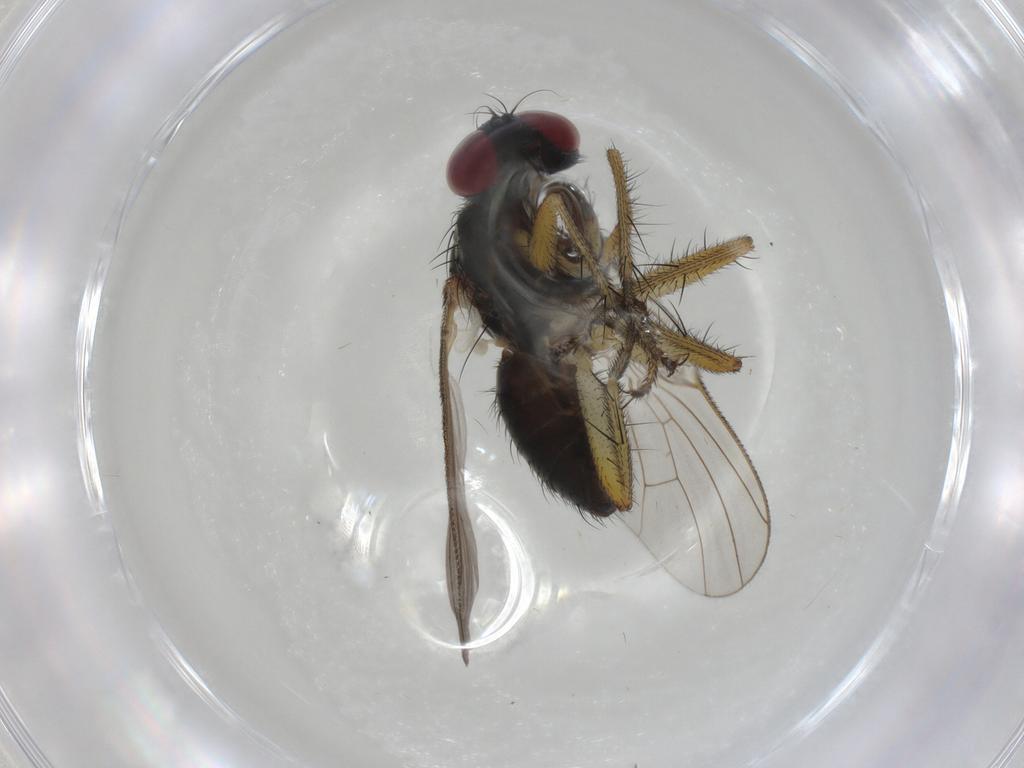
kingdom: Animalia
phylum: Arthropoda
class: Insecta
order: Diptera
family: Muscidae
